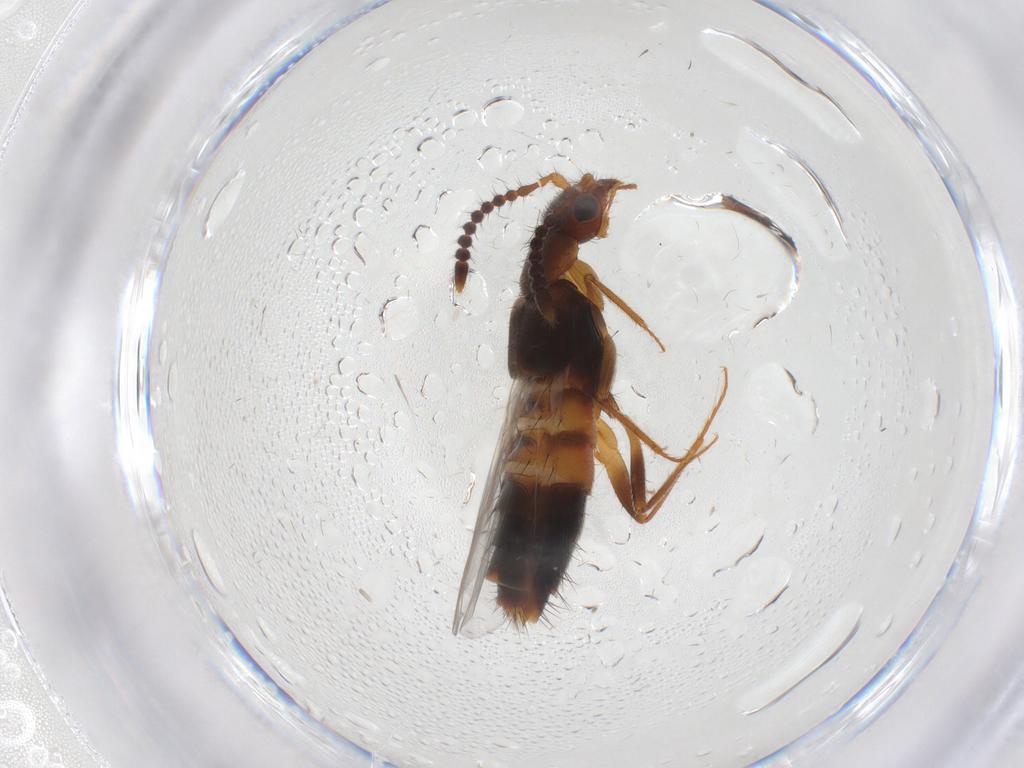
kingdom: Animalia
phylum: Arthropoda
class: Insecta
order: Coleoptera
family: Staphylinidae
